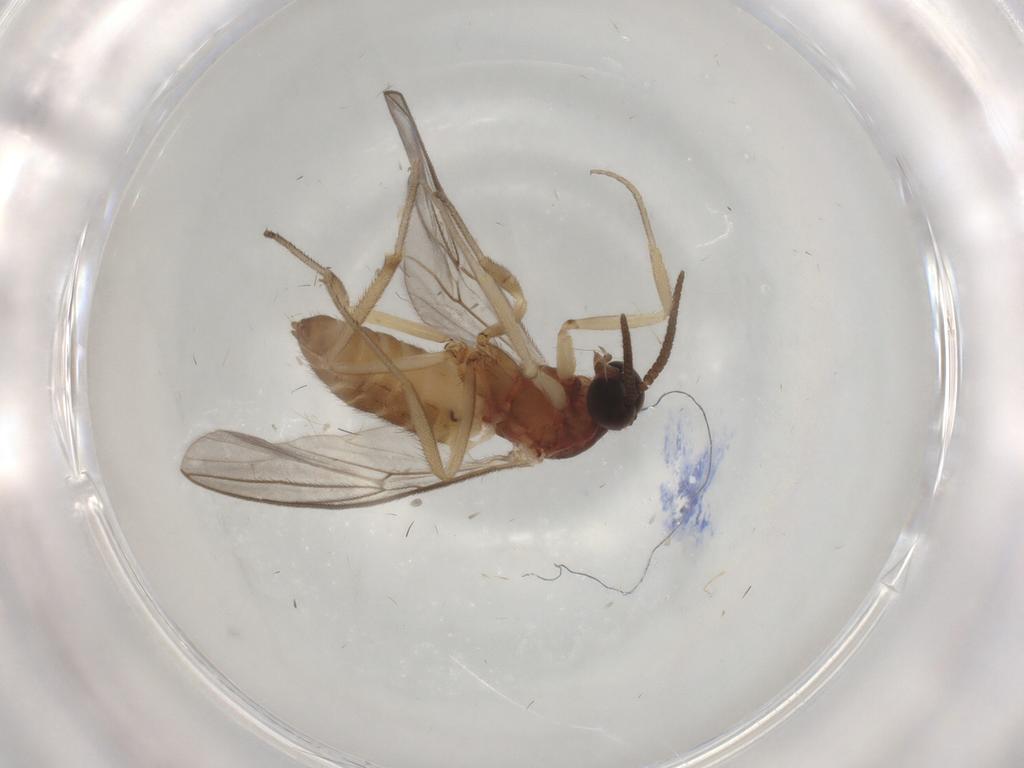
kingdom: Animalia
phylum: Arthropoda
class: Insecta
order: Diptera
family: Anisopodidae
